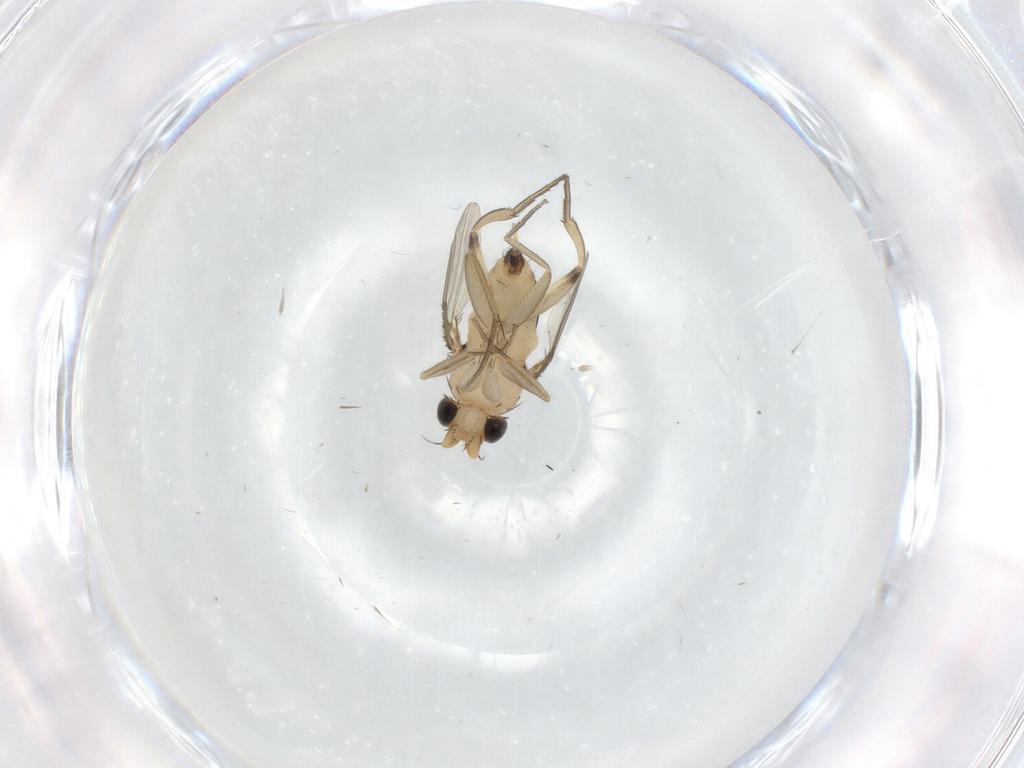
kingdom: Animalia
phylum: Arthropoda
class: Insecta
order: Diptera
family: Phoridae
